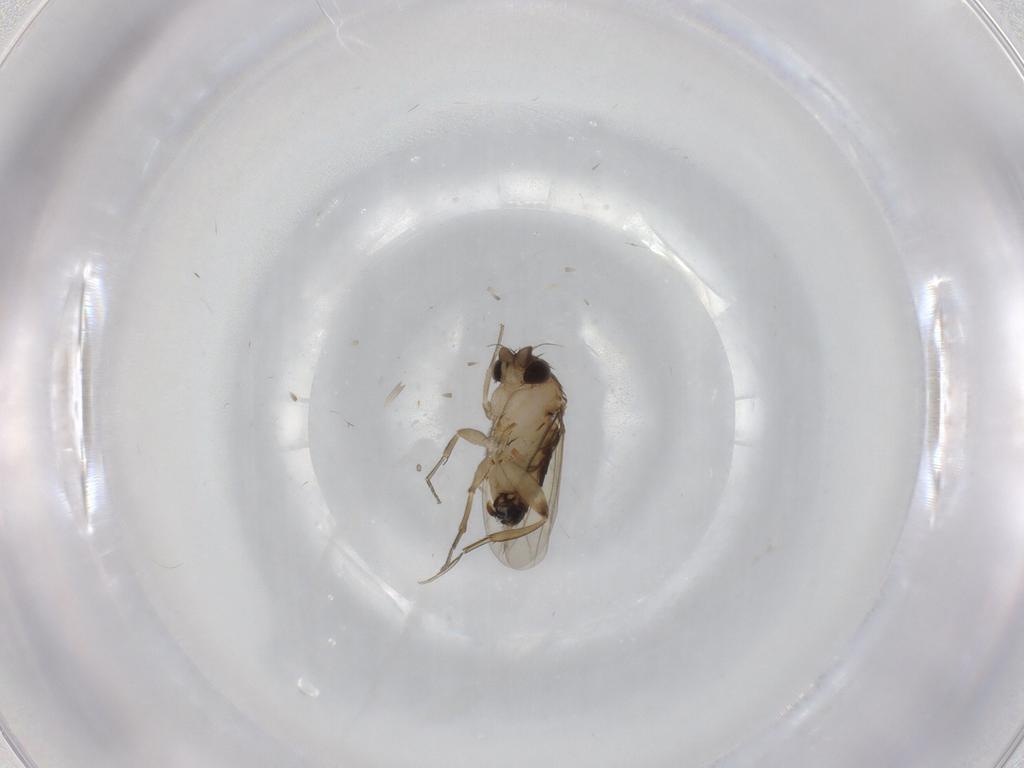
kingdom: Animalia
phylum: Arthropoda
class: Insecta
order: Diptera
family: Phoridae
